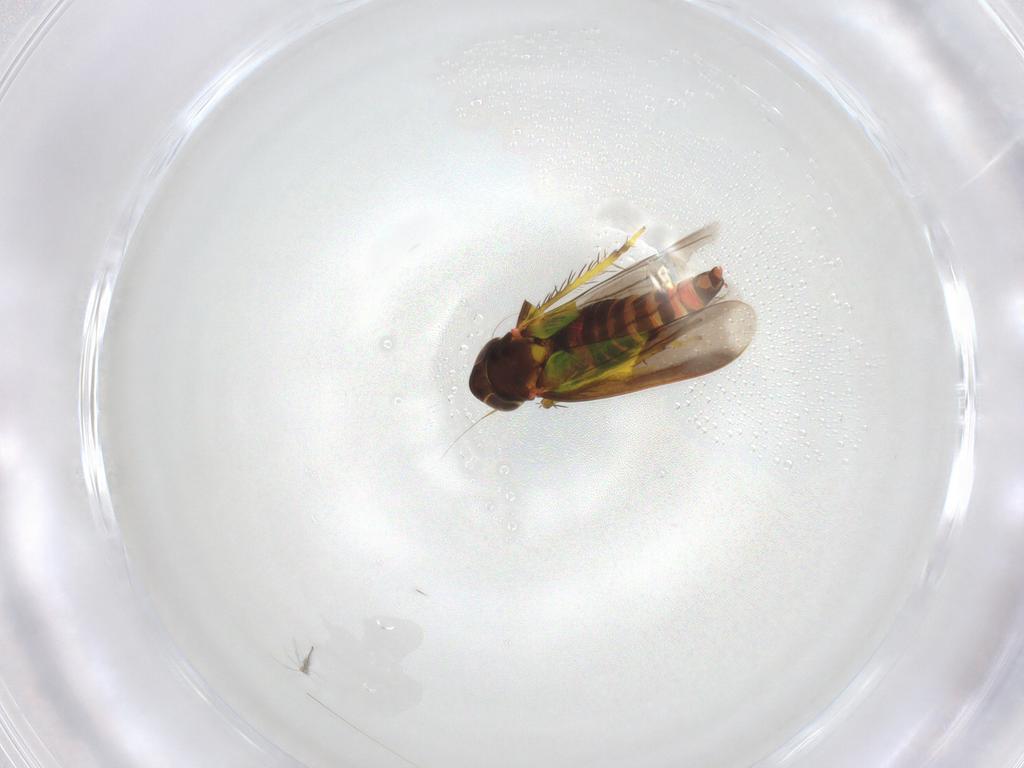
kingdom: Animalia
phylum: Arthropoda
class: Insecta
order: Hemiptera
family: Cicadellidae
